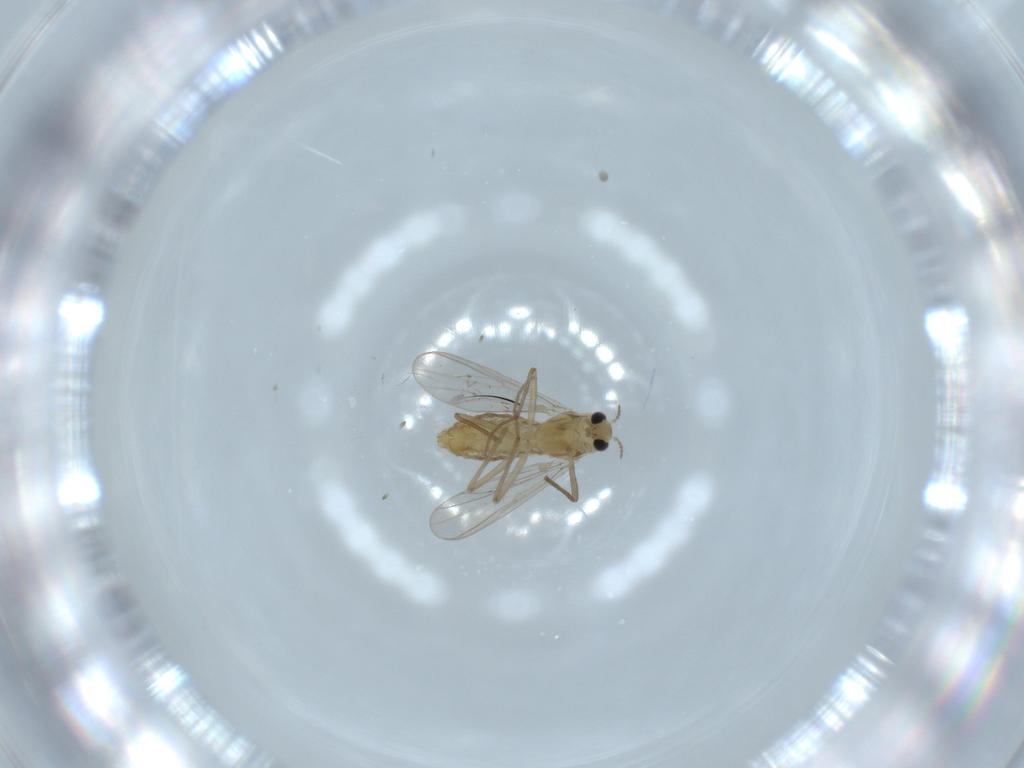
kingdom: Animalia
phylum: Arthropoda
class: Insecta
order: Diptera
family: Chironomidae
